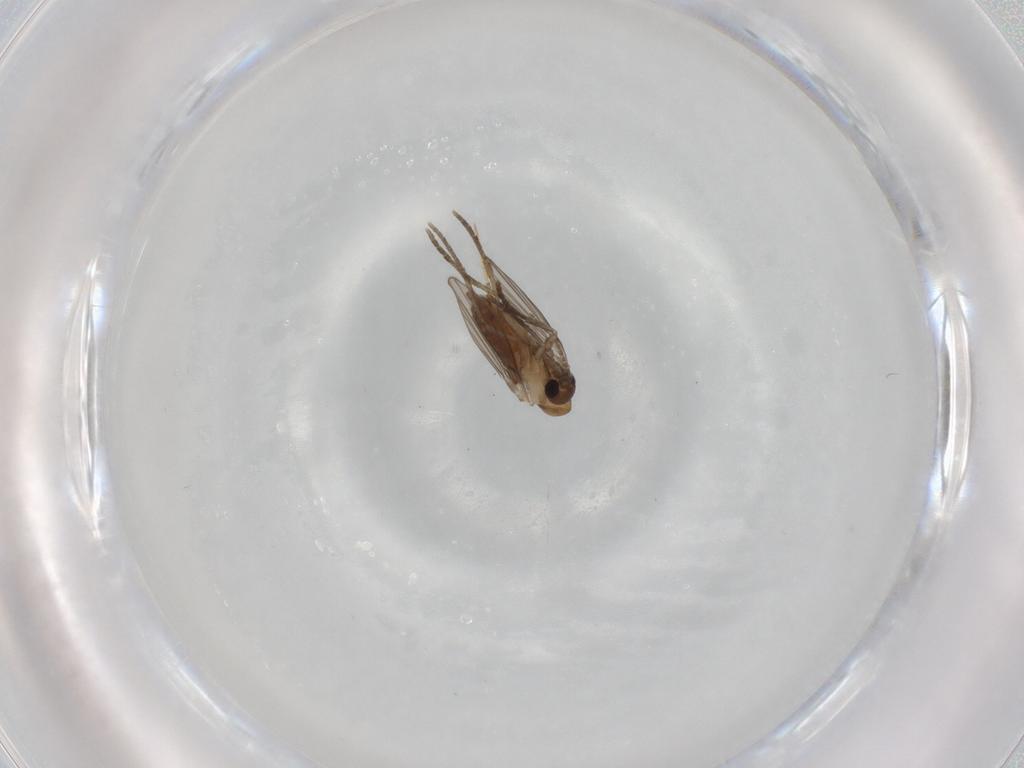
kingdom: Animalia
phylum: Arthropoda
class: Insecta
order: Diptera
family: Psychodidae
